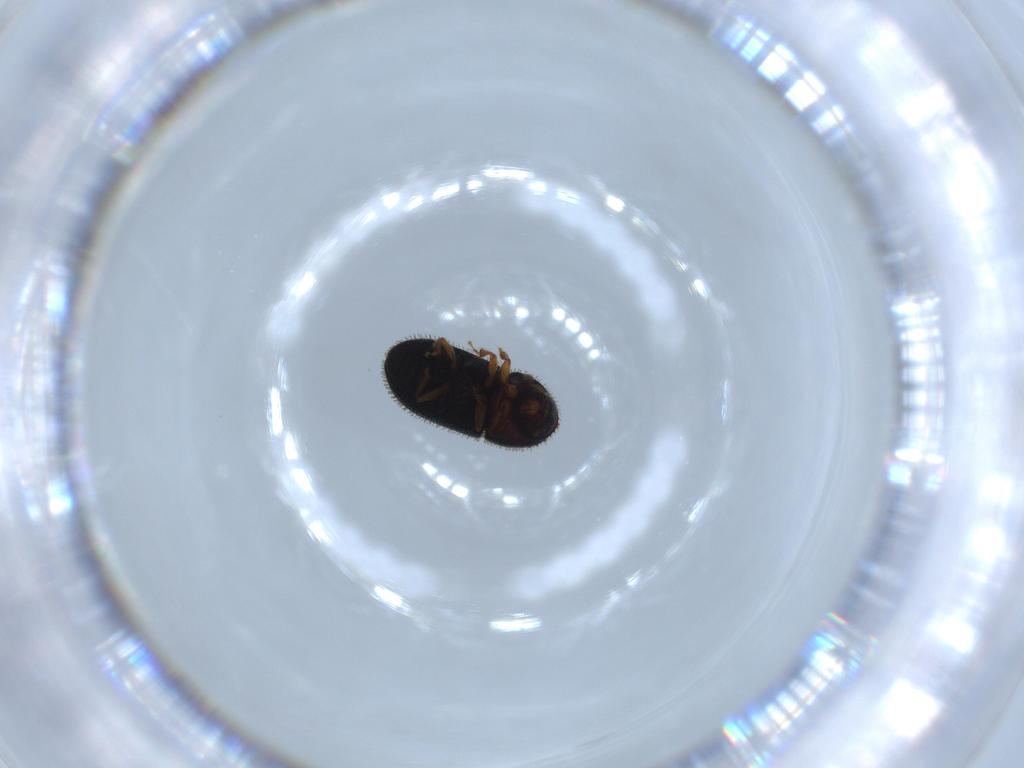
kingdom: Animalia
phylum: Arthropoda
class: Insecta
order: Coleoptera
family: Curculionidae
